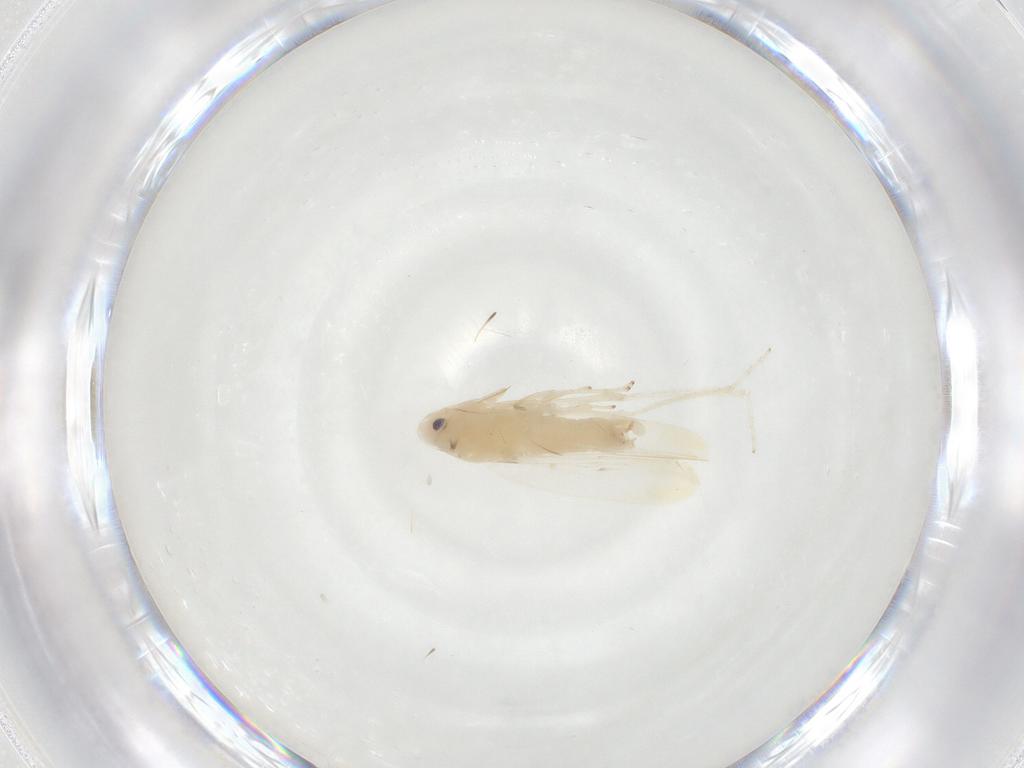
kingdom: Animalia
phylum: Arthropoda
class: Insecta
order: Hemiptera
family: Cicadellidae
